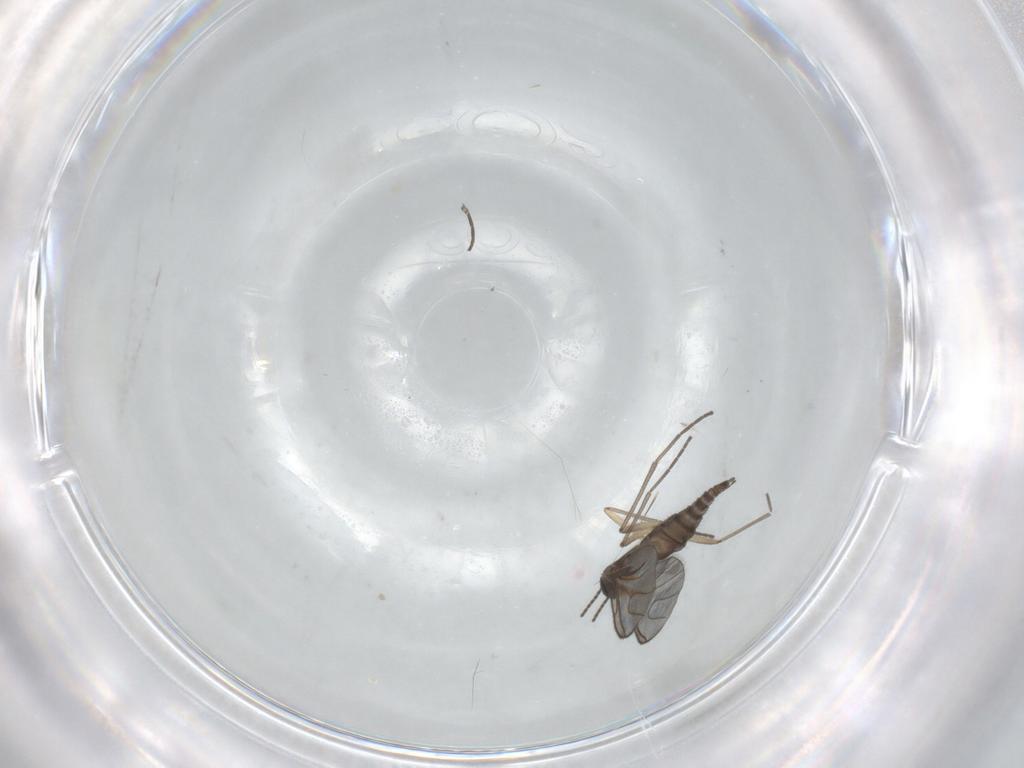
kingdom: Animalia
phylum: Arthropoda
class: Insecta
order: Diptera
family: Sciaridae
